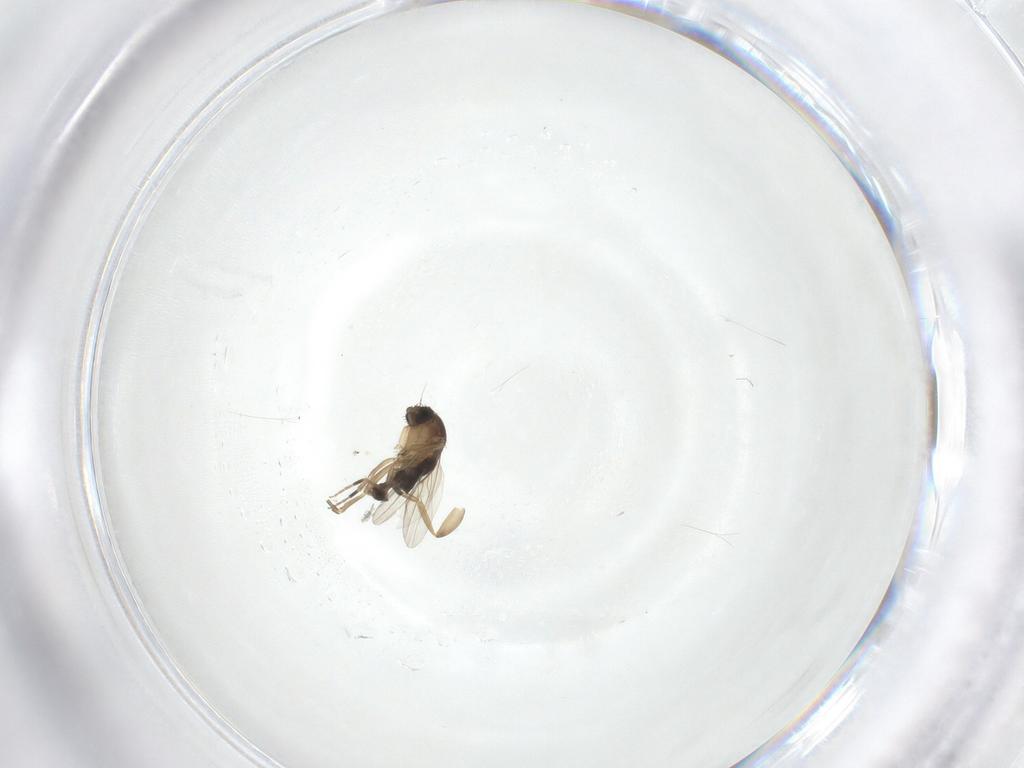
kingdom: Animalia
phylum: Arthropoda
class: Insecta
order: Diptera
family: Phoridae
